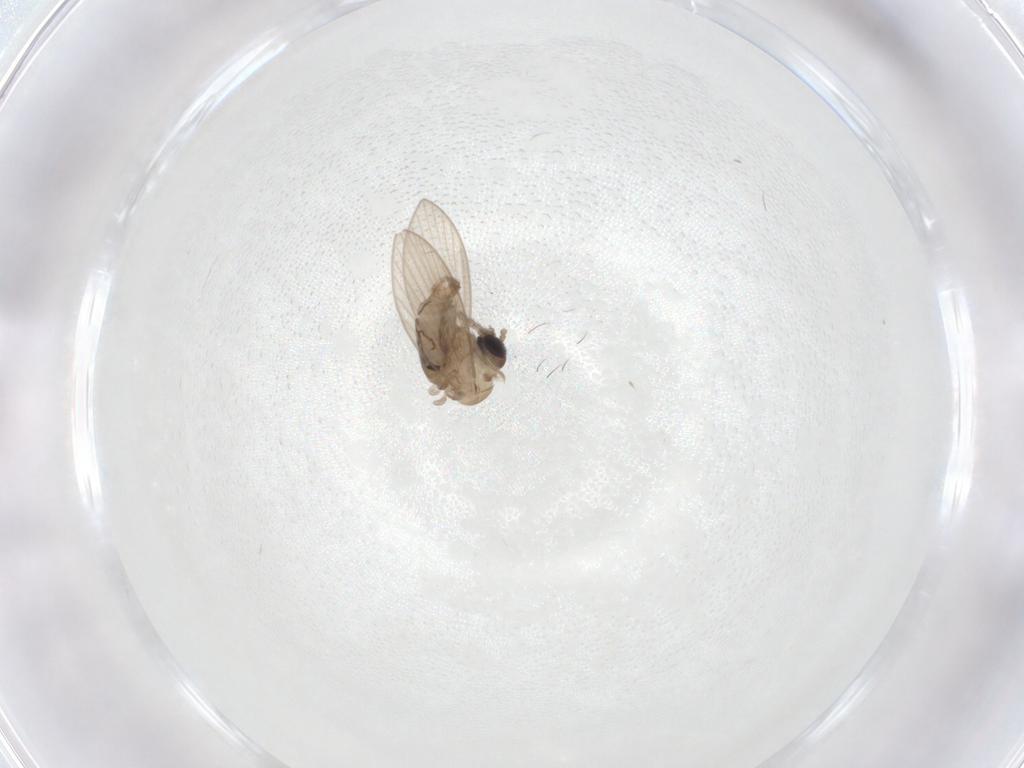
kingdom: Animalia
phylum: Arthropoda
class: Insecta
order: Diptera
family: Psychodidae
